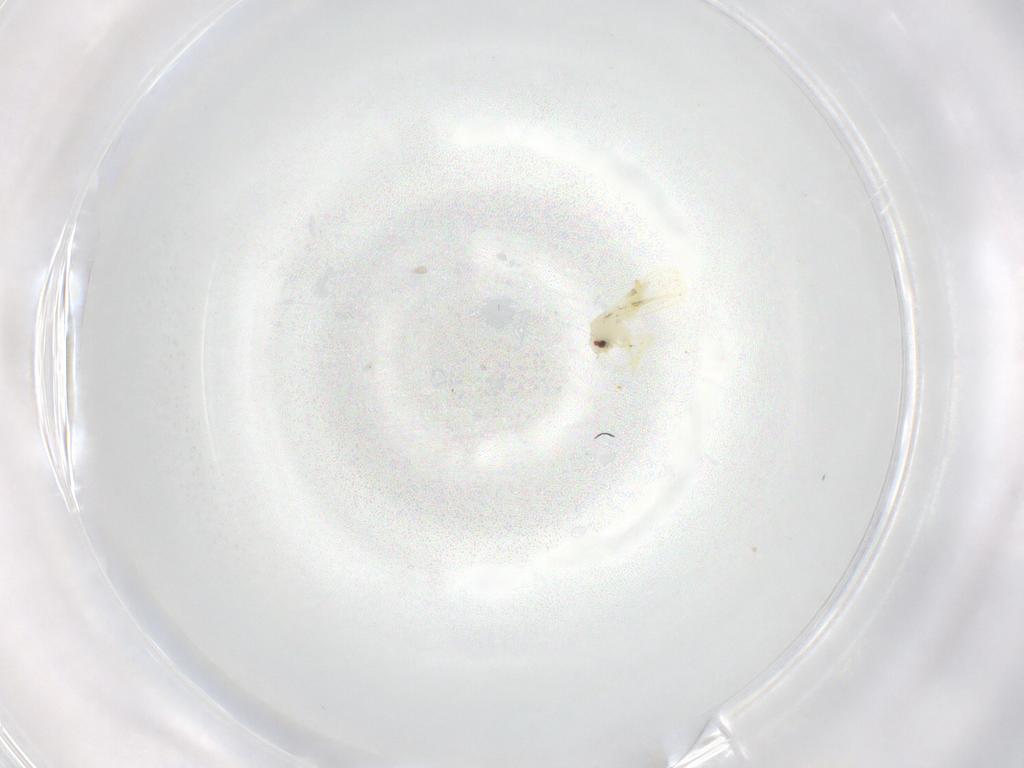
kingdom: Animalia
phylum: Arthropoda
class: Insecta
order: Hemiptera
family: Aleyrodidae
